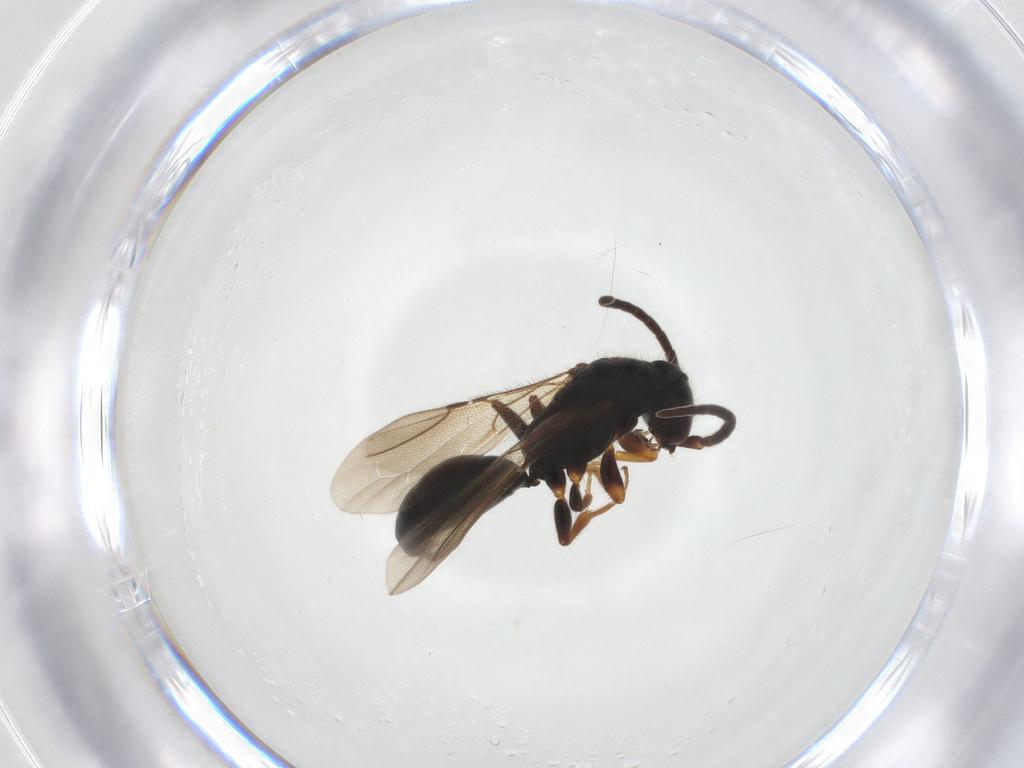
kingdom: Animalia
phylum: Arthropoda
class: Insecta
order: Hymenoptera
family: Bethylidae
